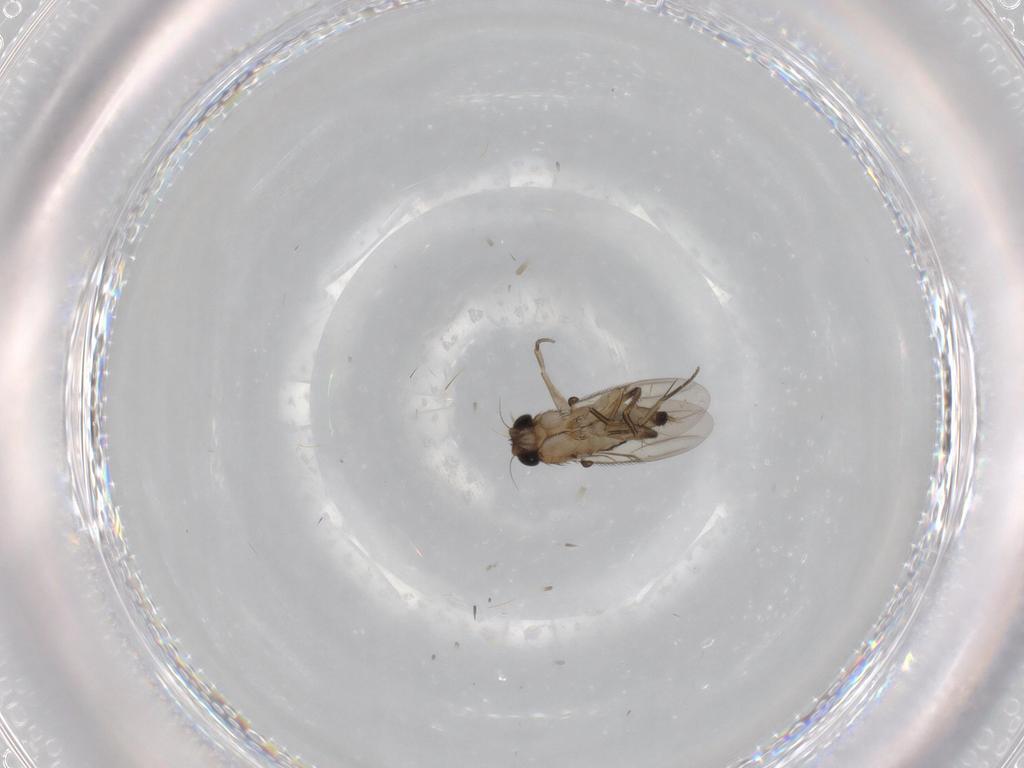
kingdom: Animalia
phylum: Arthropoda
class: Insecta
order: Diptera
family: Phoridae
